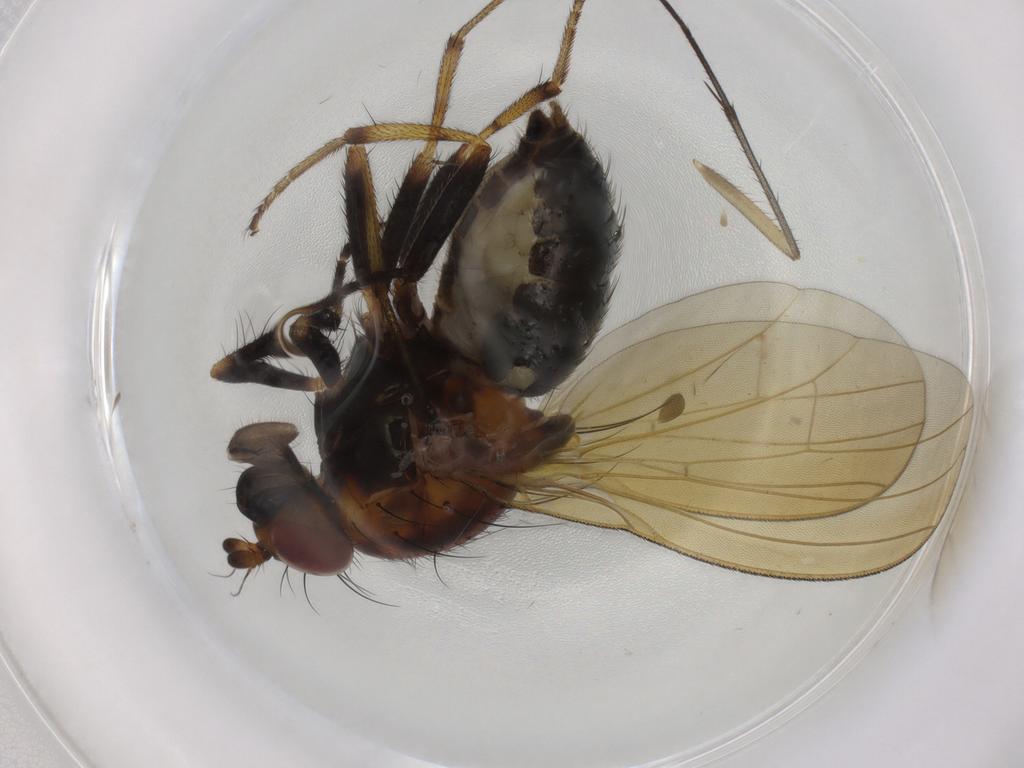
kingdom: Animalia
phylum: Arthropoda
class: Insecta
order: Diptera
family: Lauxaniidae
